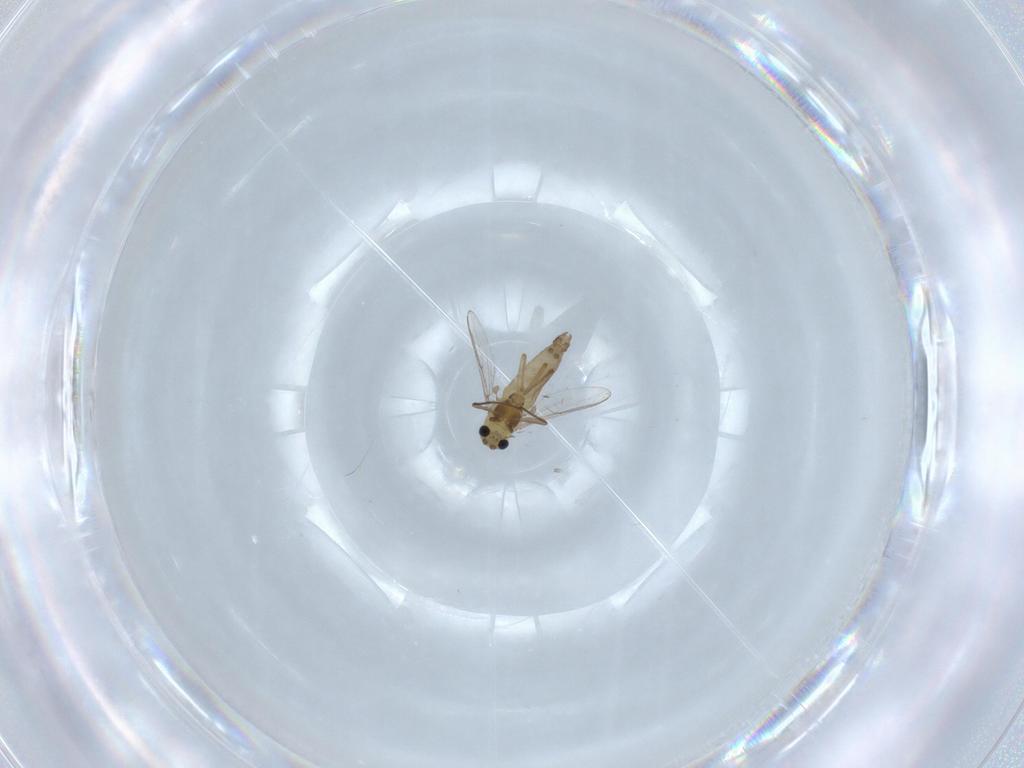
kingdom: Animalia
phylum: Arthropoda
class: Insecta
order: Diptera
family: Chironomidae
